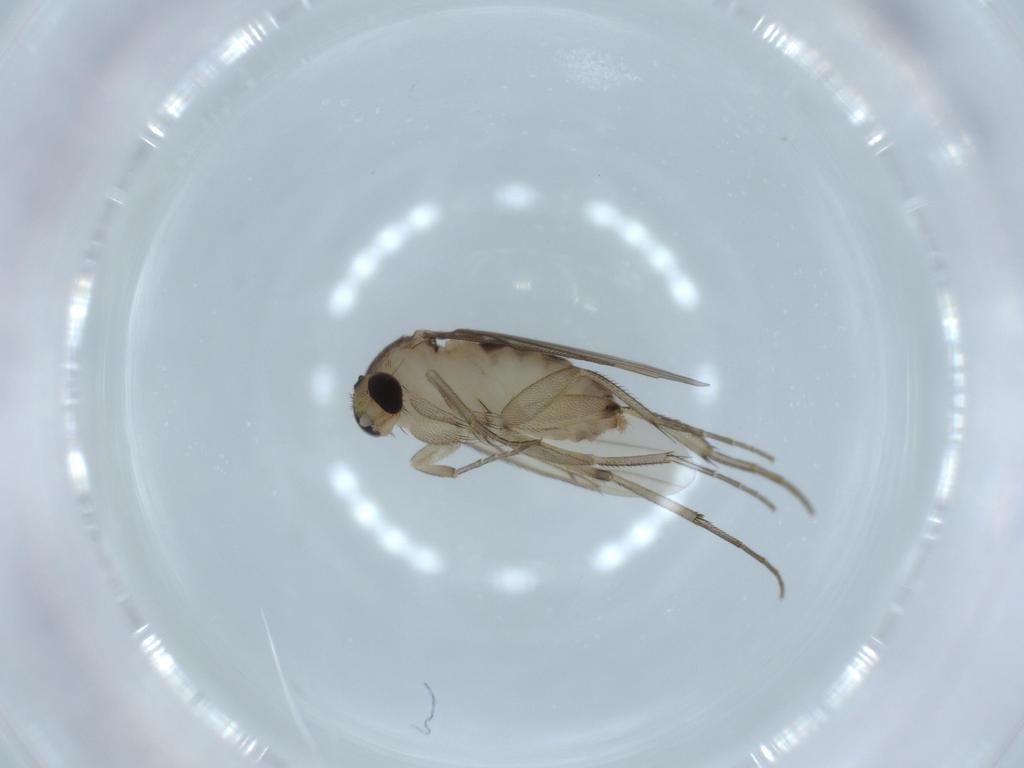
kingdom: Animalia
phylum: Arthropoda
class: Insecta
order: Diptera
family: Phoridae
